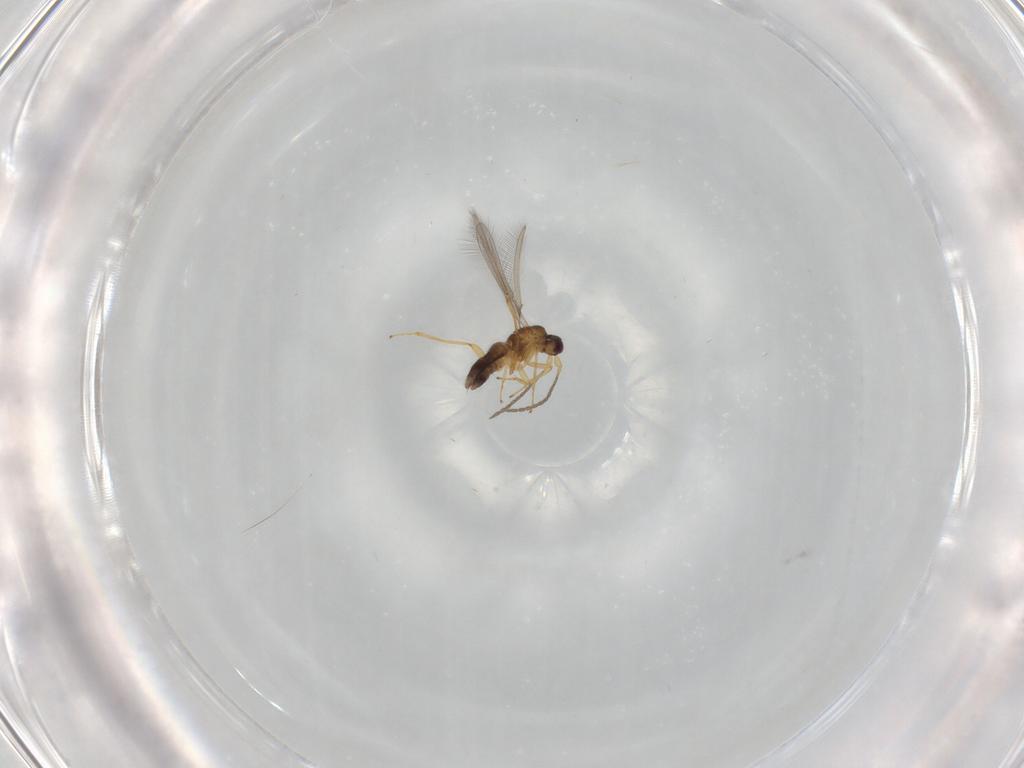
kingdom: Animalia
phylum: Arthropoda
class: Insecta
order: Hymenoptera
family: Mymaridae
